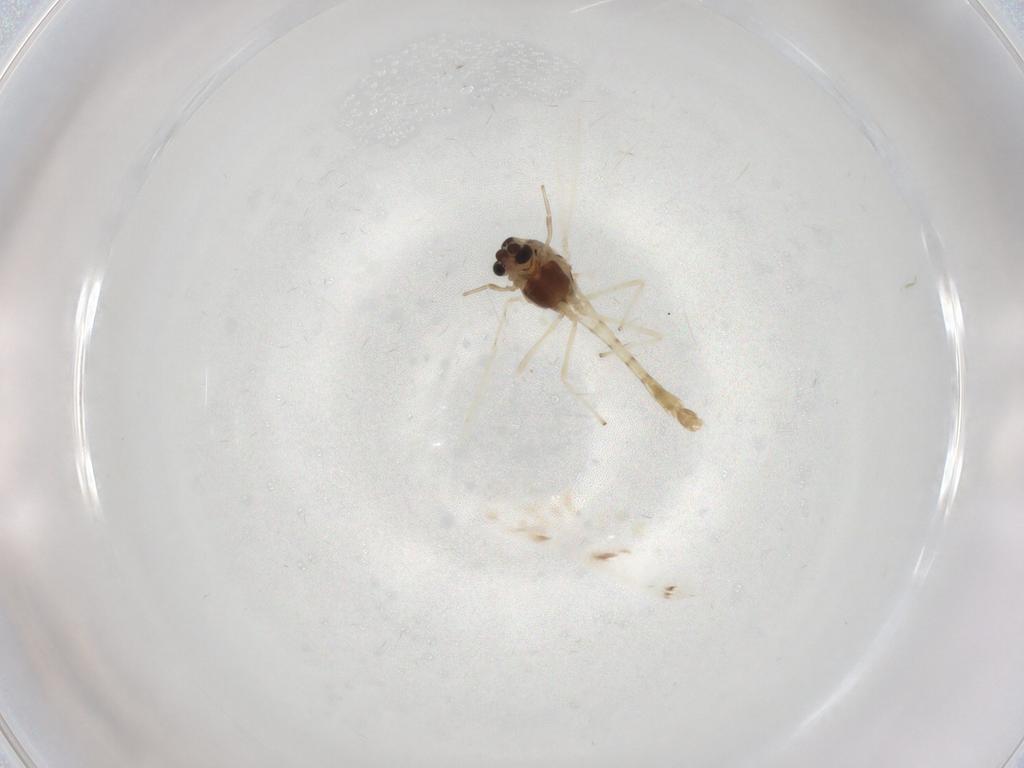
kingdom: Animalia
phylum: Arthropoda
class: Insecta
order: Diptera
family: Chironomidae
